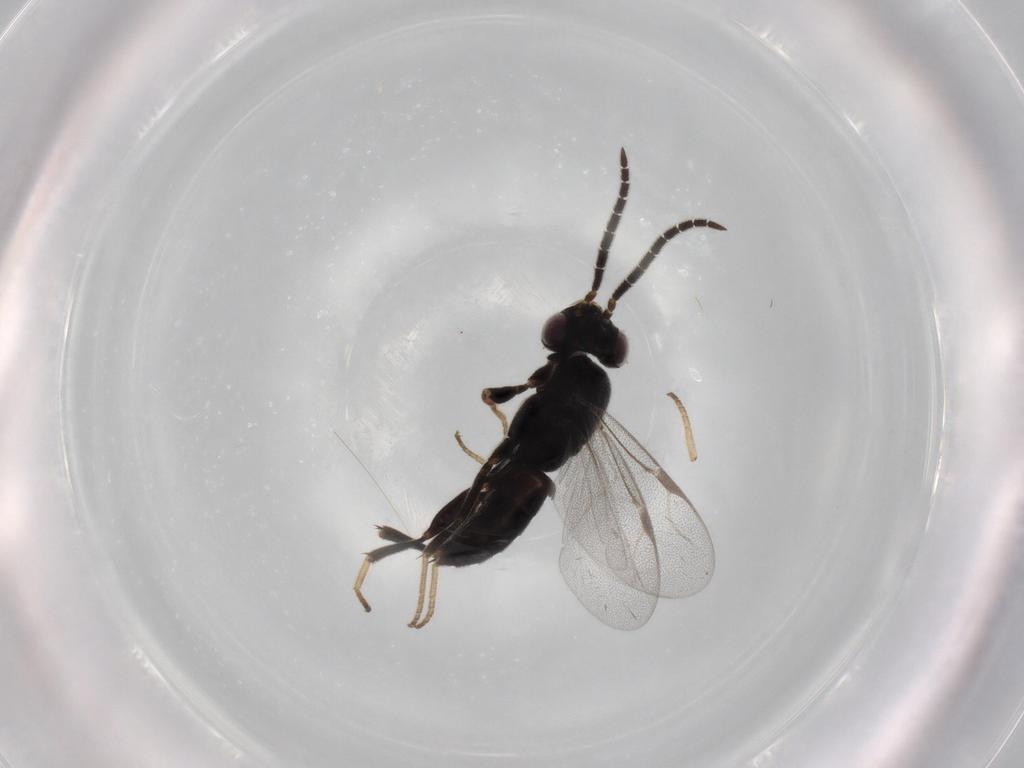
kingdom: Animalia
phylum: Arthropoda
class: Insecta
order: Hymenoptera
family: Dryinidae
